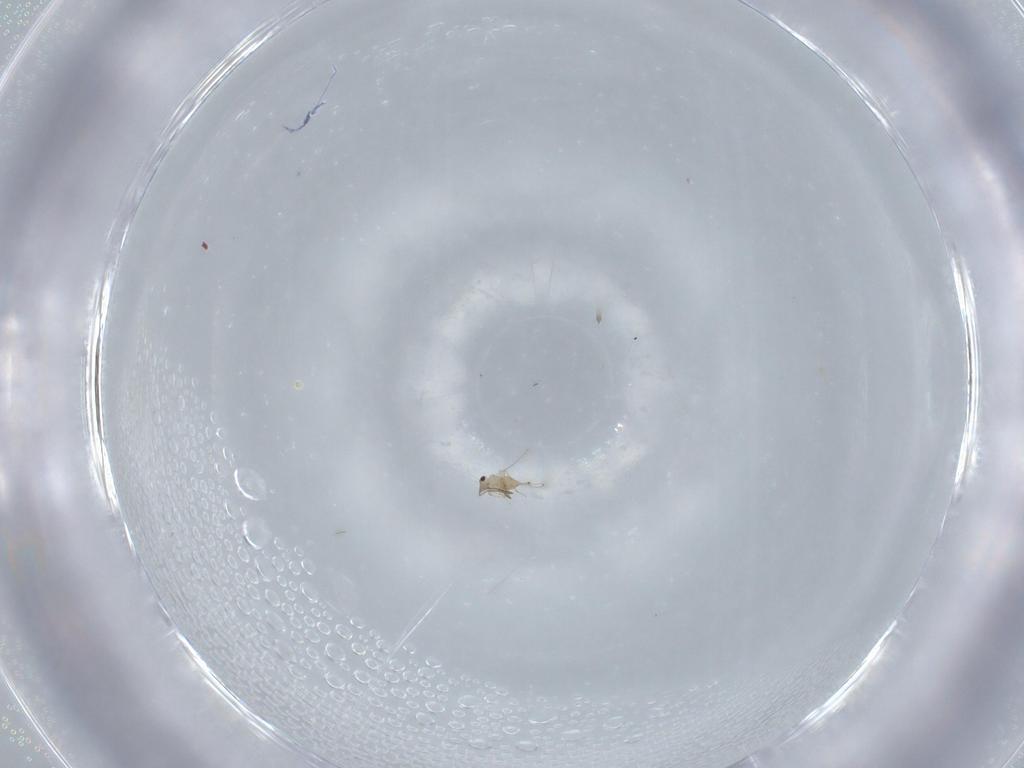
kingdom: Animalia
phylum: Arthropoda
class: Insecta
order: Hymenoptera
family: Mymaridae
